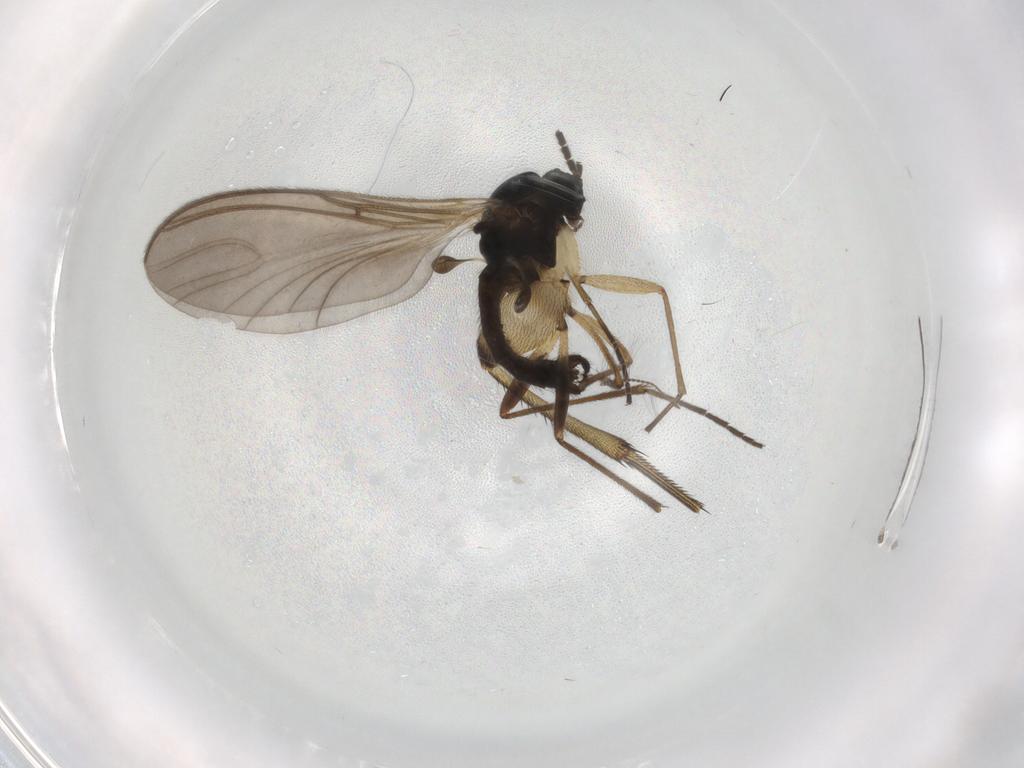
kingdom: Animalia
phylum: Arthropoda
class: Insecta
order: Diptera
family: Sciaridae
